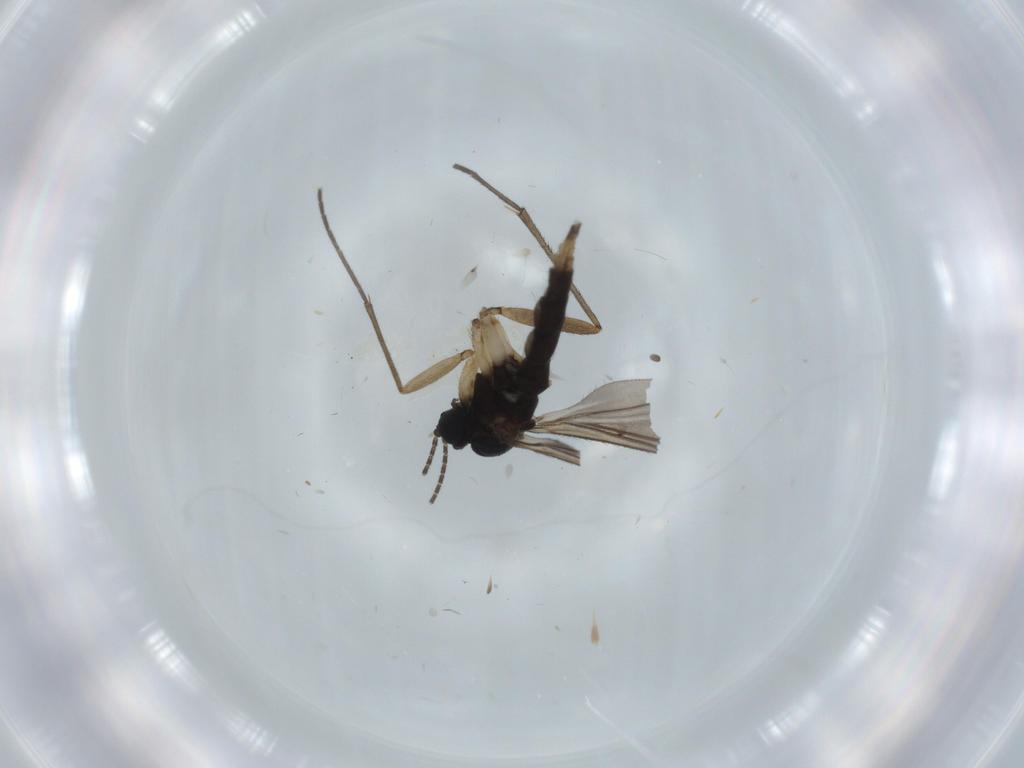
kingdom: Animalia
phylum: Arthropoda
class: Insecta
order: Diptera
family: Sciaridae
